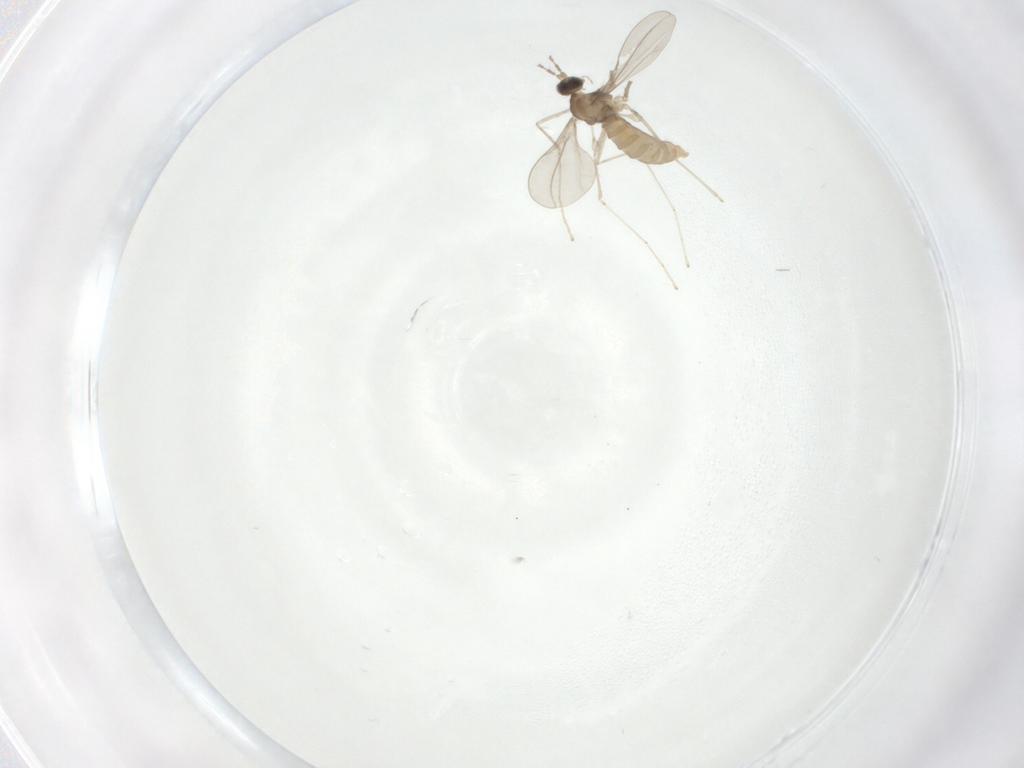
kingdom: Animalia
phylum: Arthropoda
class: Insecta
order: Diptera
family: Cecidomyiidae
